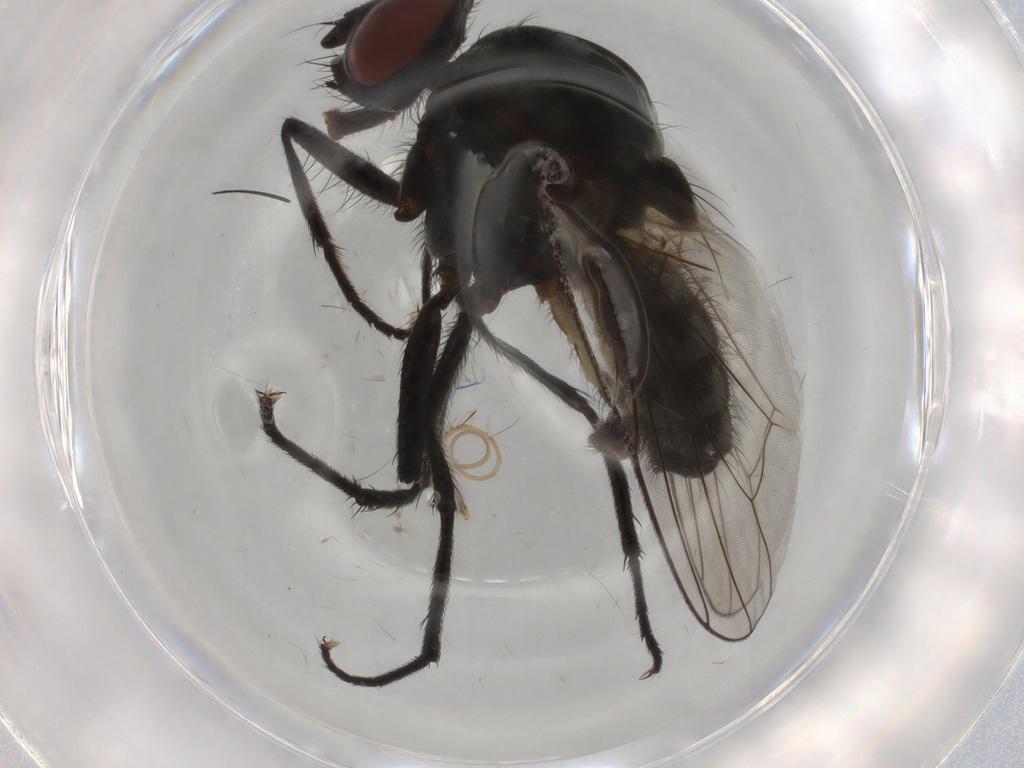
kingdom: Animalia
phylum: Arthropoda
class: Insecta
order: Diptera
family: Anthomyiidae
